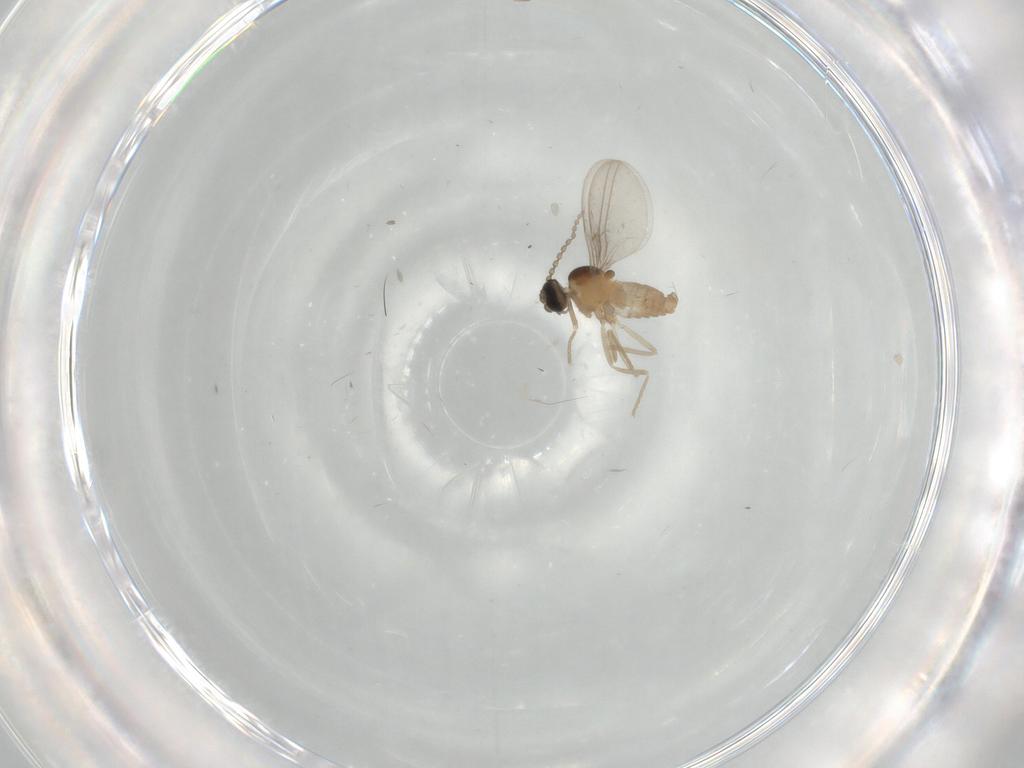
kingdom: Animalia
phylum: Arthropoda
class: Insecta
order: Diptera
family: Cecidomyiidae
